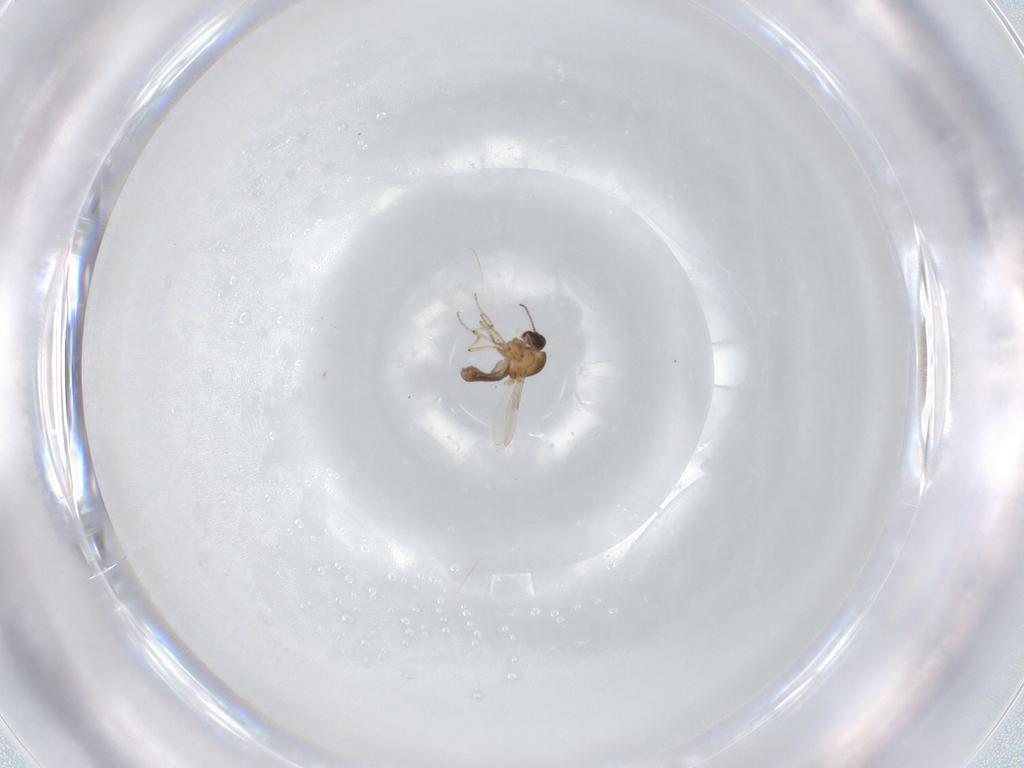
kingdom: Animalia
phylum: Arthropoda
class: Insecta
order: Diptera
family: Ceratopogonidae
